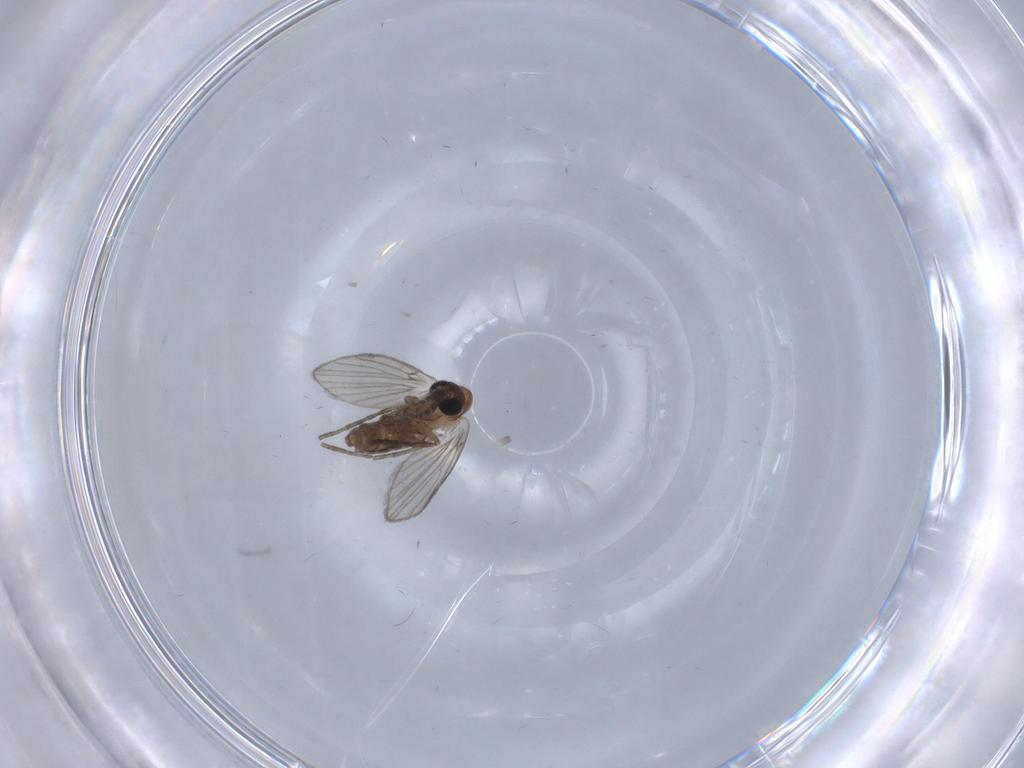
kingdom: Animalia
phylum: Arthropoda
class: Insecta
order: Diptera
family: Psychodidae
